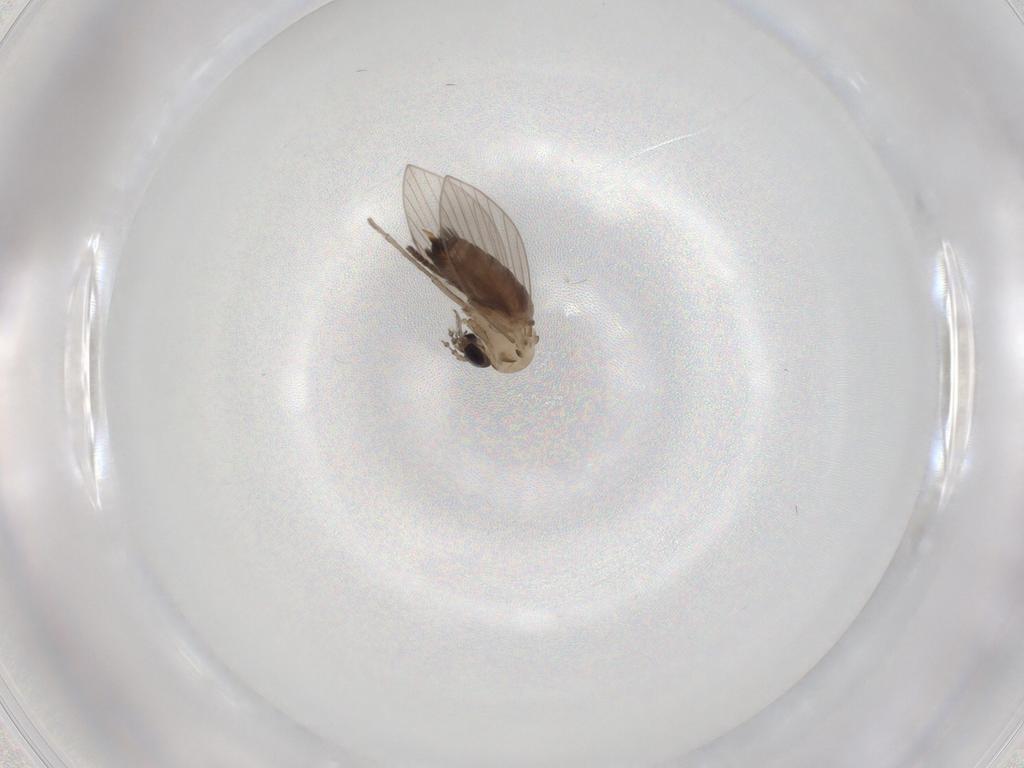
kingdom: Animalia
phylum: Arthropoda
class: Insecta
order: Diptera
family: Psychodidae
